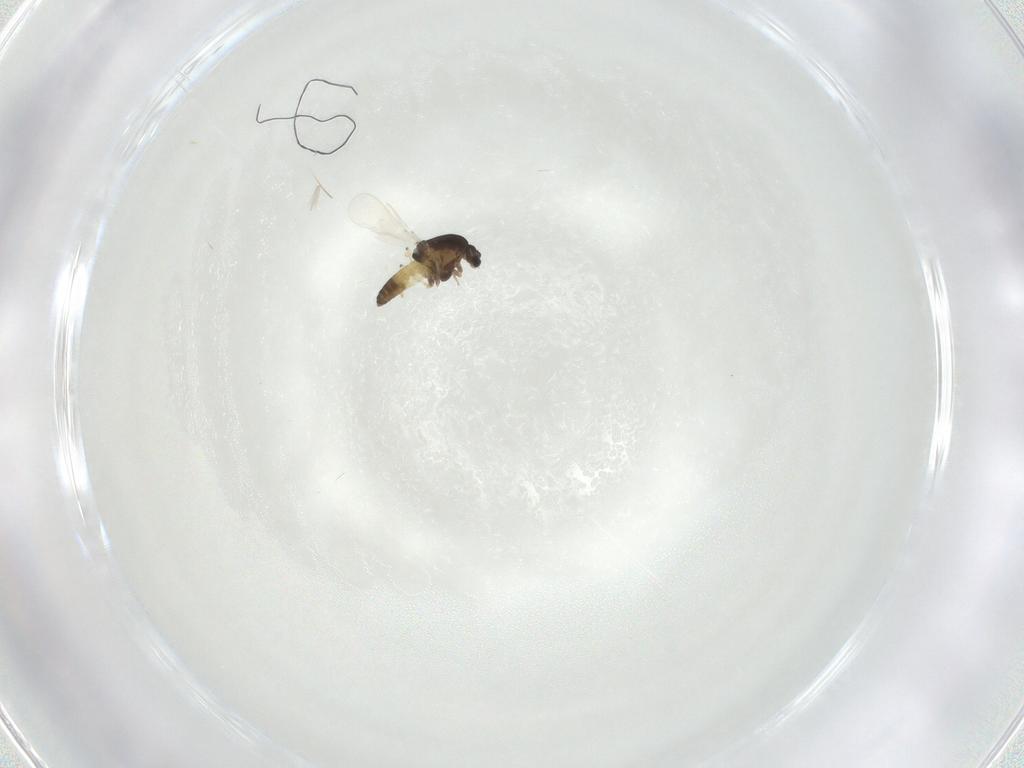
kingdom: Animalia
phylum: Arthropoda
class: Insecta
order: Diptera
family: Chironomidae
